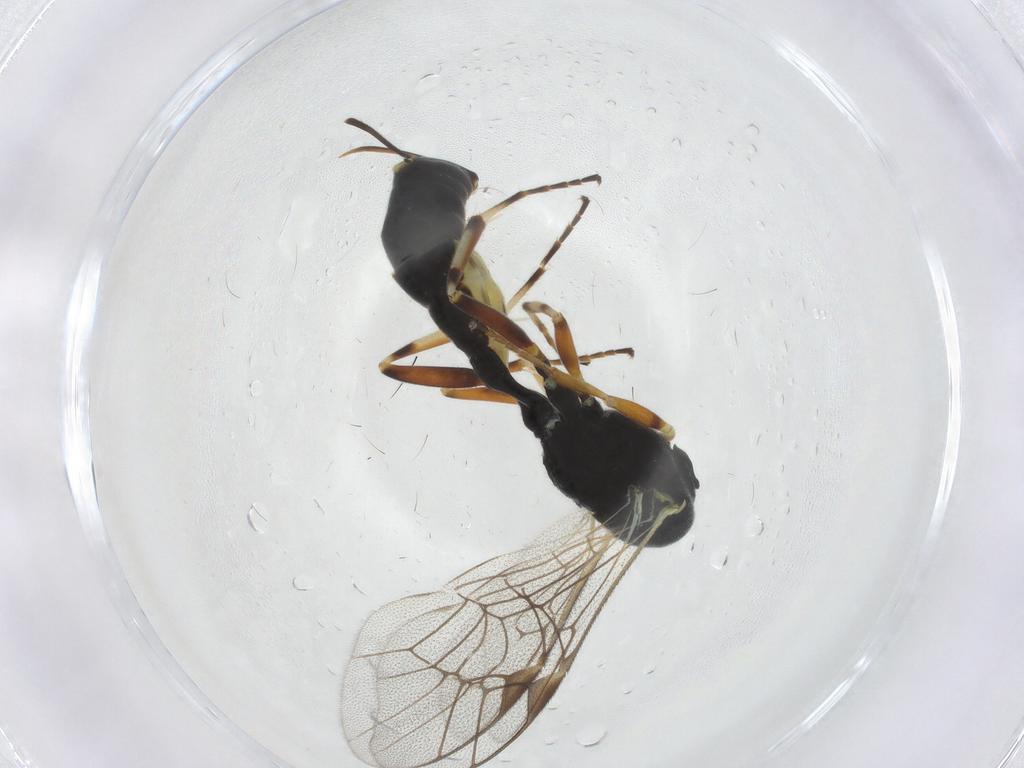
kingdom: Animalia
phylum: Arthropoda
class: Insecta
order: Hymenoptera
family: Ichneumonidae
